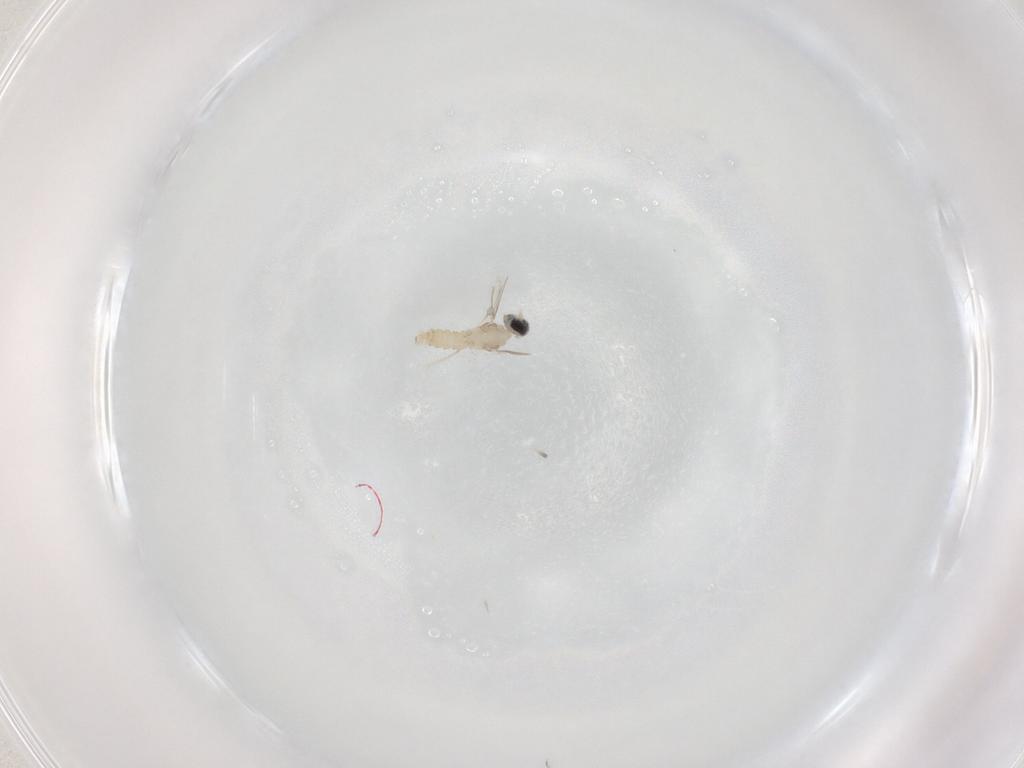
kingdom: Animalia
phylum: Arthropoda
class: Insecta
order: Diptera
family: Cecidomyiidae
